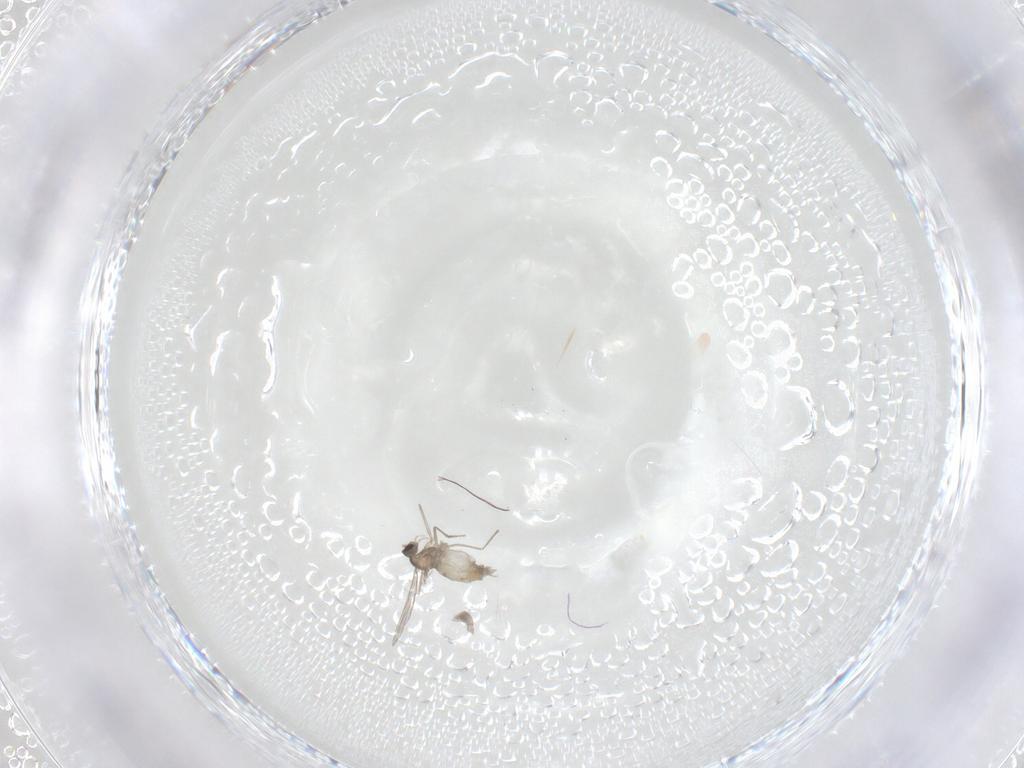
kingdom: Animalia
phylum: Arthropoda
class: Insecta
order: Diptera
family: Cecidomyiidae
